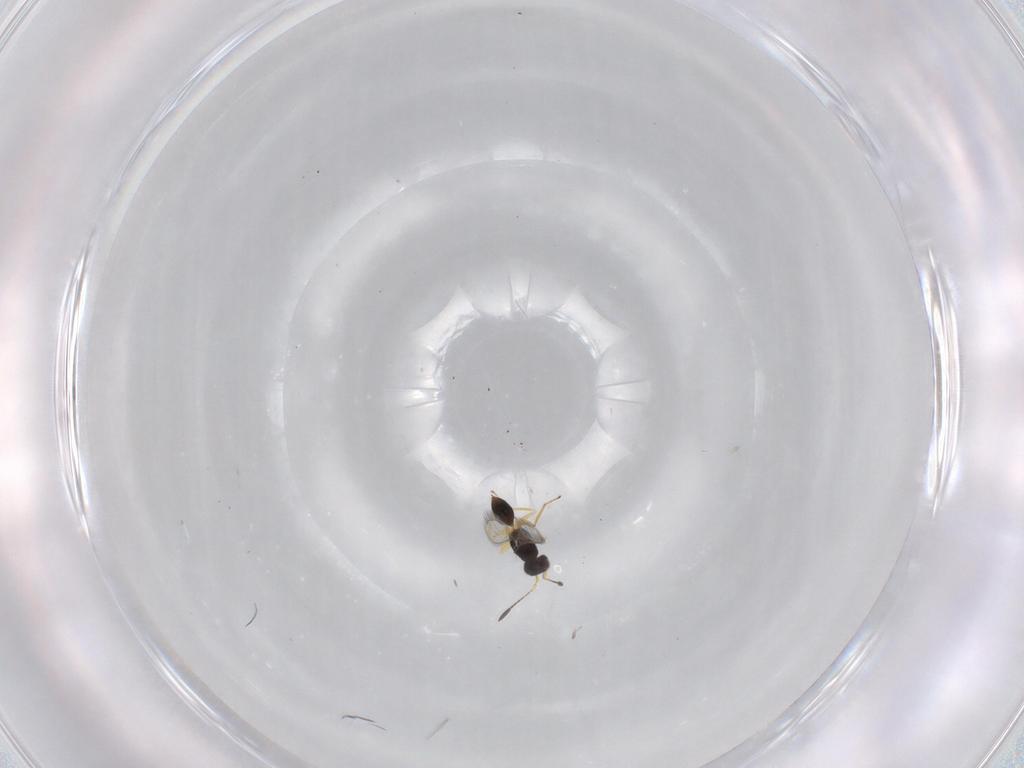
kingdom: Animalia
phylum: Arthropoda
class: Insecta
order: Hymenoptera
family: Mymaridae
